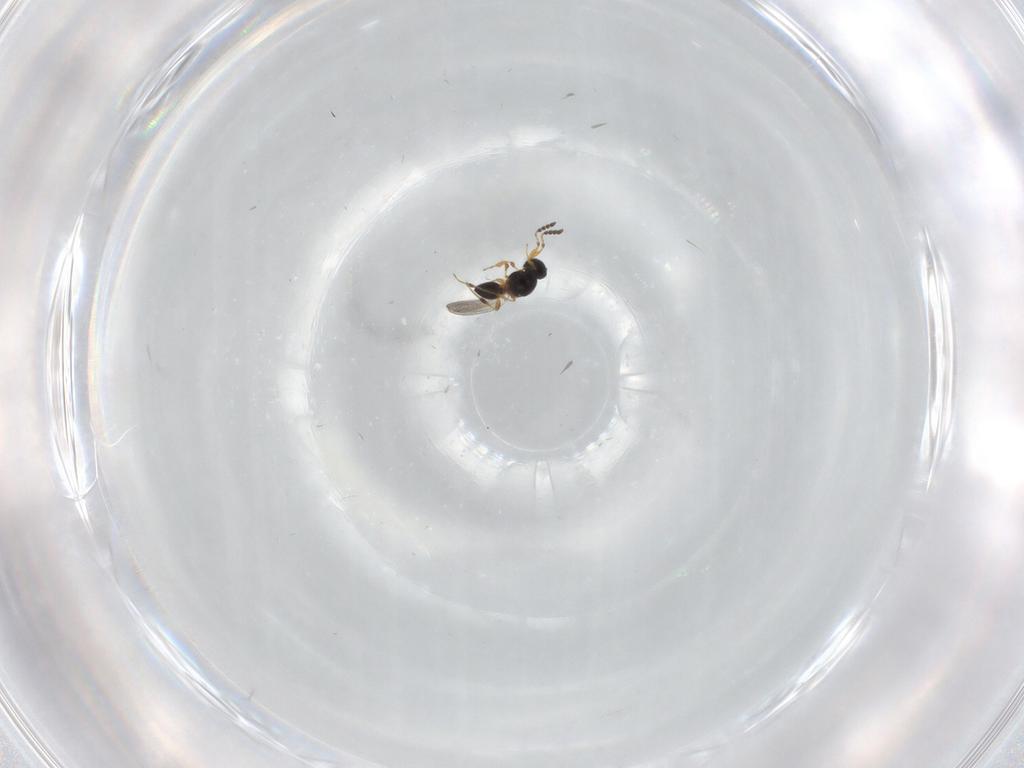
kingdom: Animalia
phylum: Arthropoda
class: Insecta
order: Hymenoptera
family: Platygastridae
